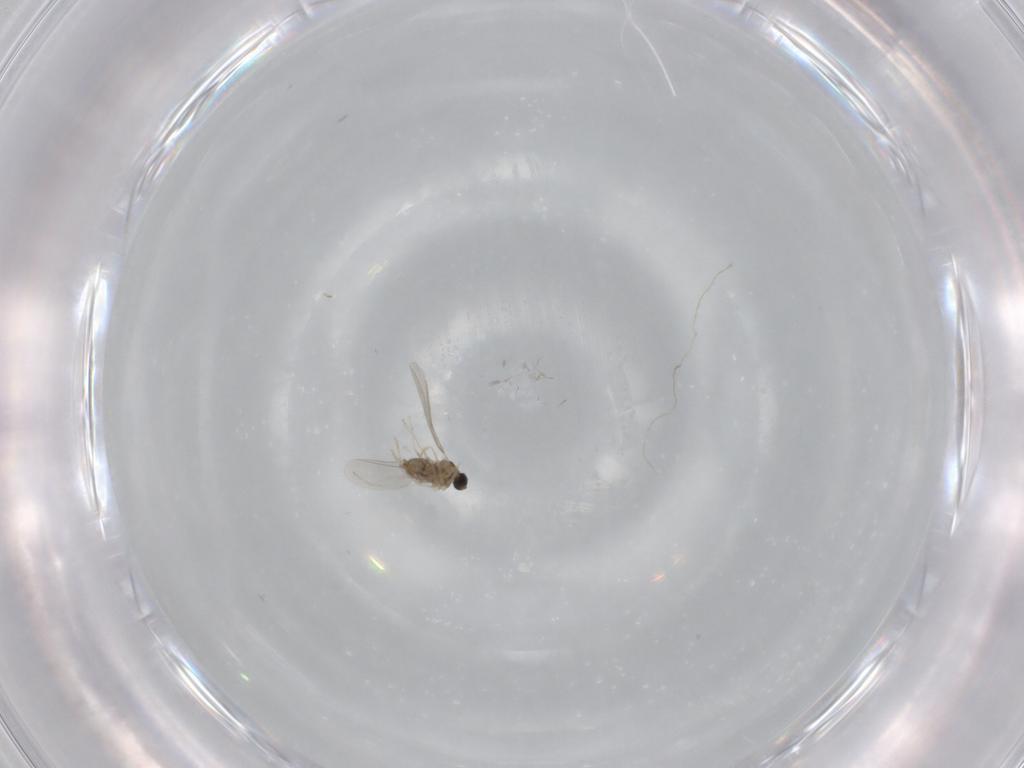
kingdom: Animalia
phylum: Arthropoda
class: Insecta
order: Diptera
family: Cecidomyiidae
